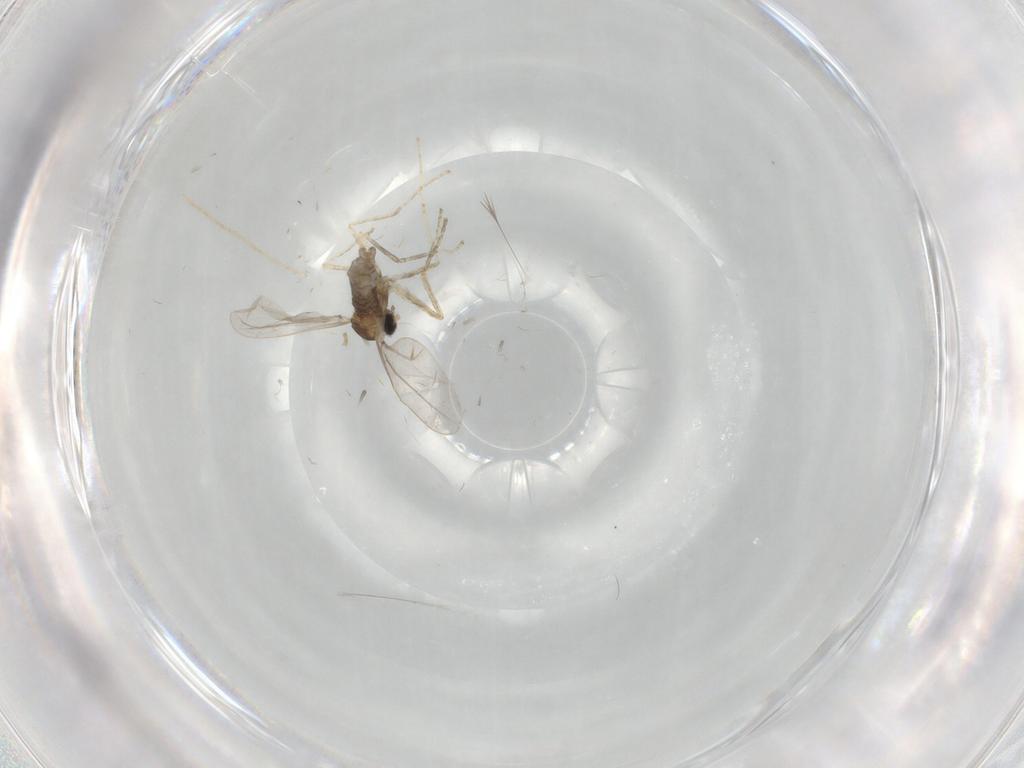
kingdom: Animalia
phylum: Arthropoda
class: Insecta
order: Diptera
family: Cecidomyiidae
